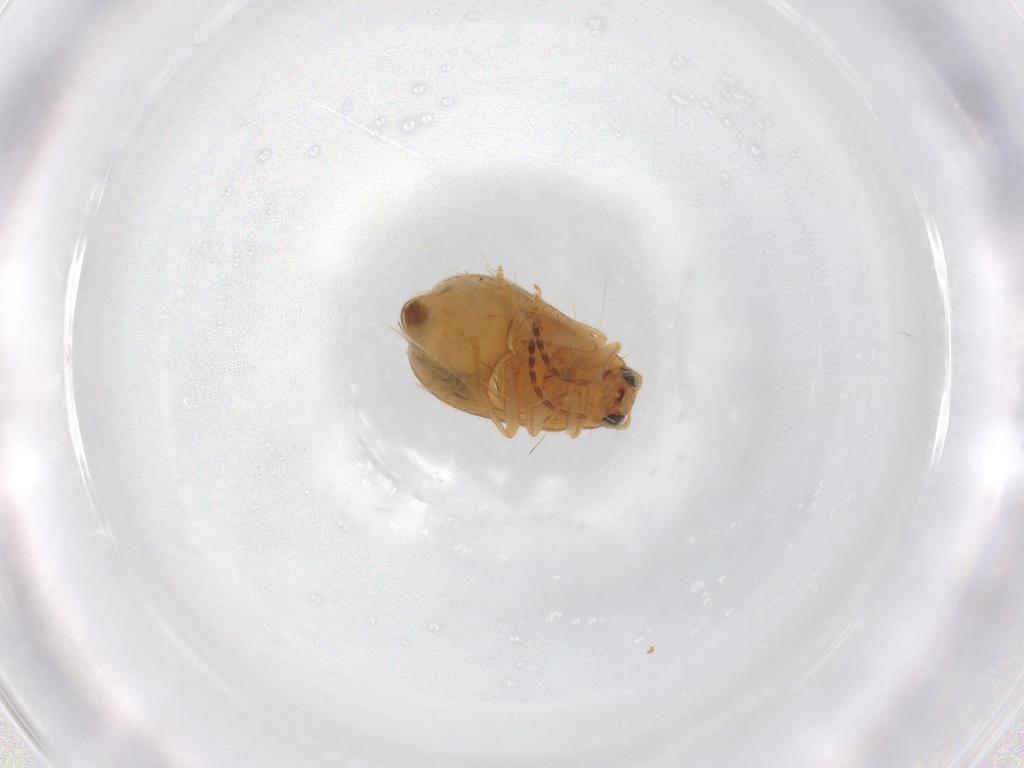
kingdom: Animalia
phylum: Arthropoda
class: Insecta
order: Coleoptera
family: Chrysomelidae
